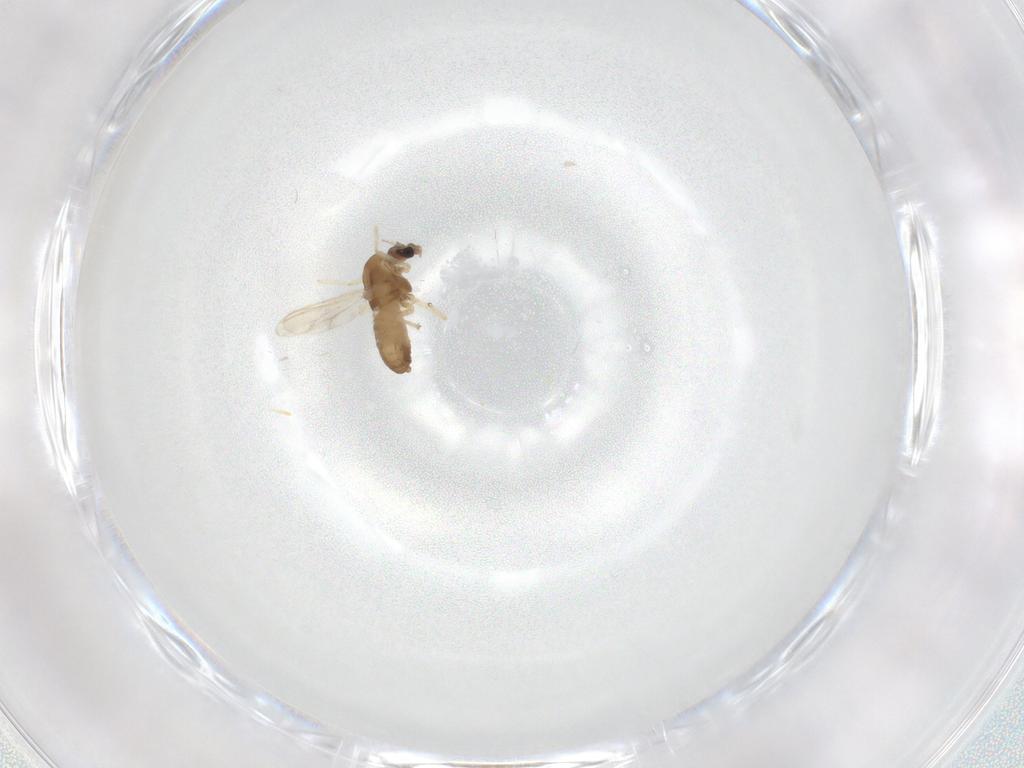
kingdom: Animalia
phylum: Arthropoda
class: Insecta
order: Diptera
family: Chironomidae
